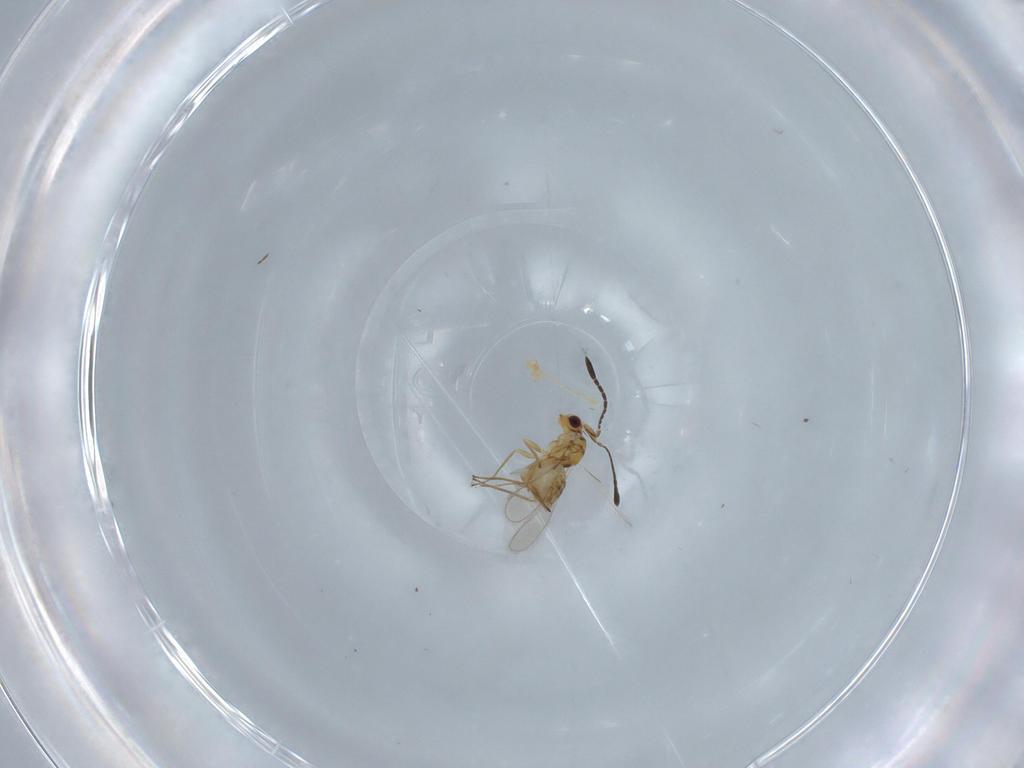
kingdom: Animalia
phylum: Arthropoda
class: Insecta
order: Hymenoptera
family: Mymaridae
